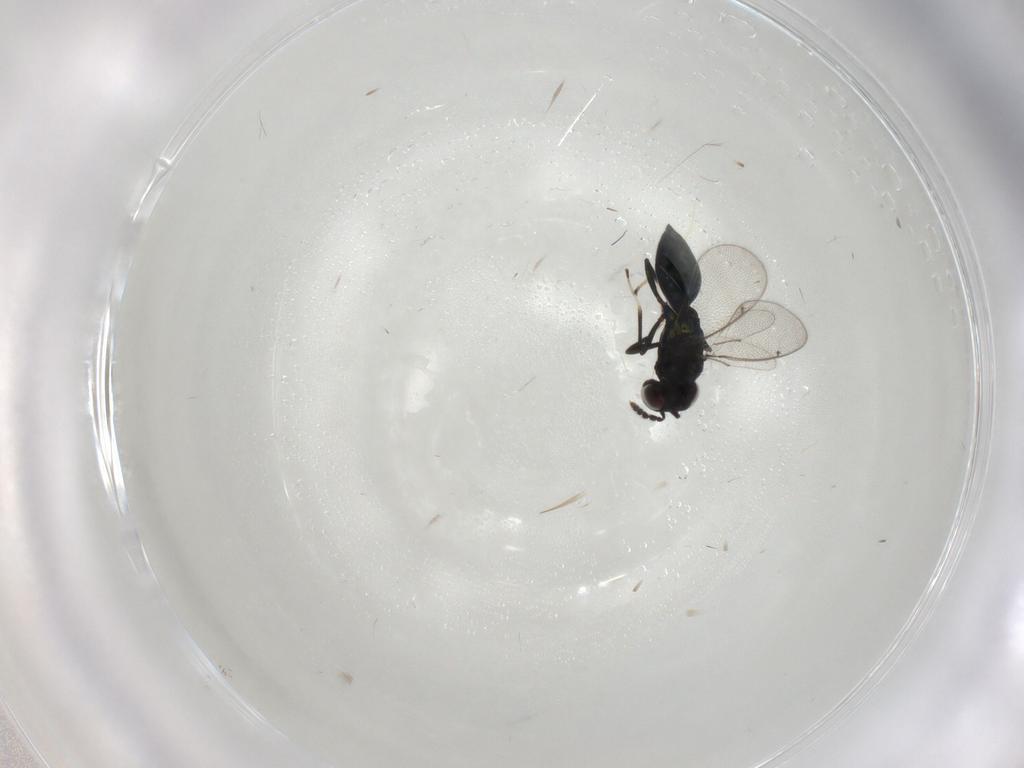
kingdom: Animalia
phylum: Arthropoda
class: Insecta
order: Hymenoptera
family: Eulophidae
